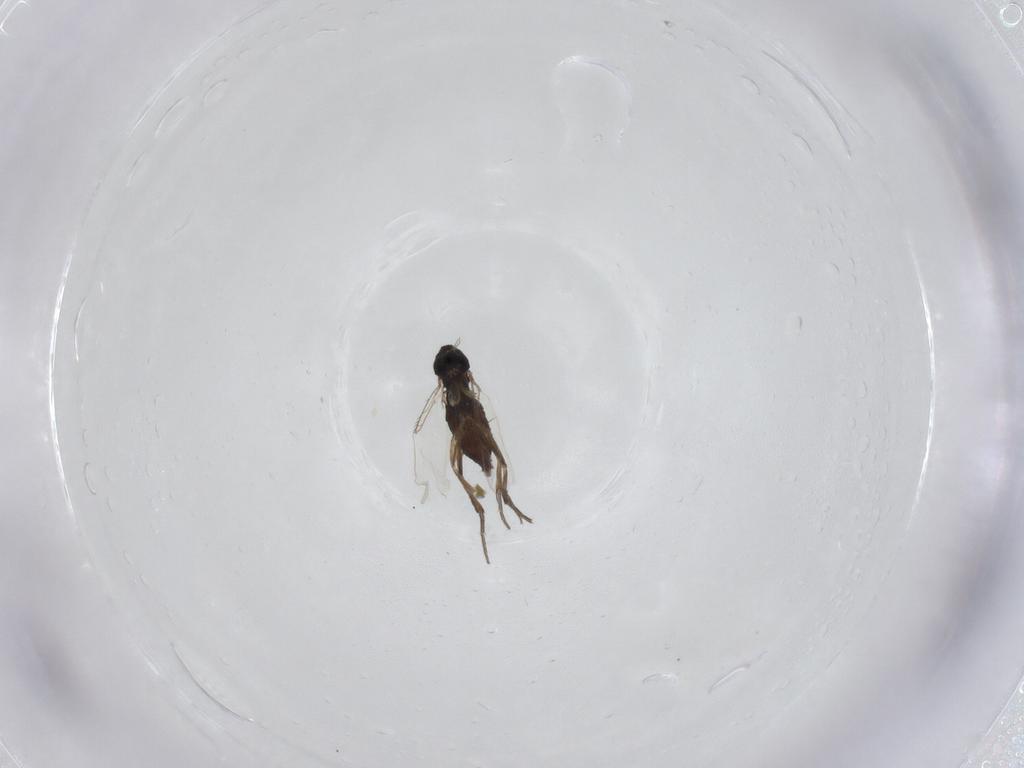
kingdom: Animalia
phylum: Arthropoda
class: Insecta
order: Diptera
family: Phoridae
